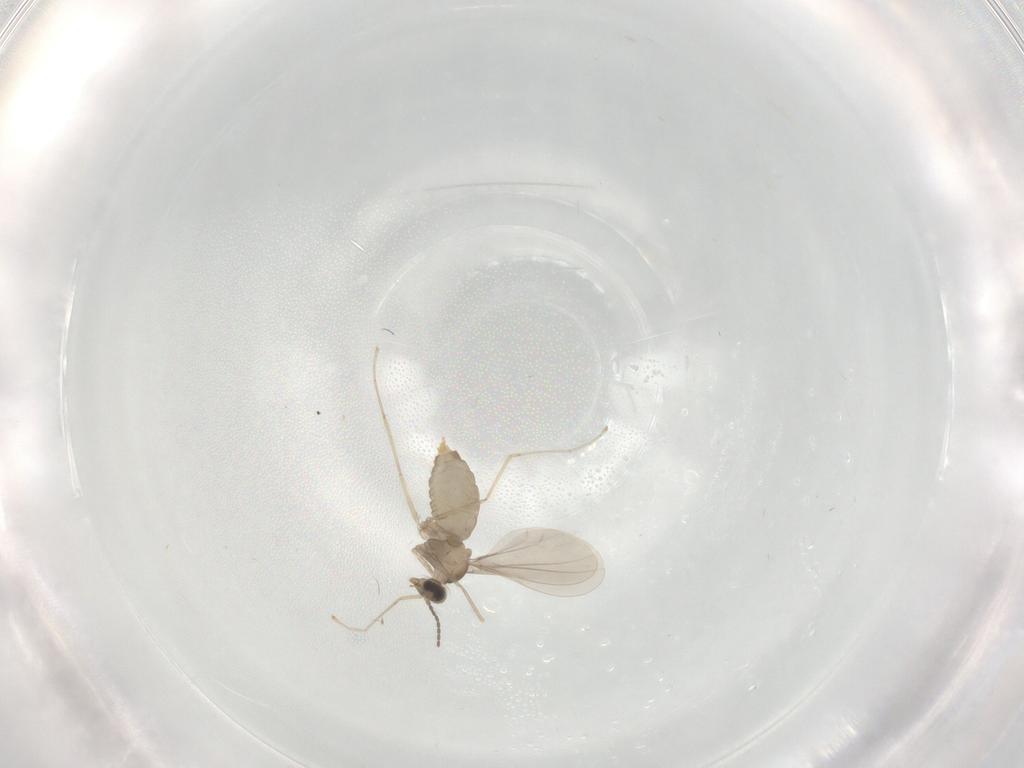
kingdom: Animalia
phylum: Arthropoda
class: Insecta
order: Diptera
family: Cecidomyiidae
